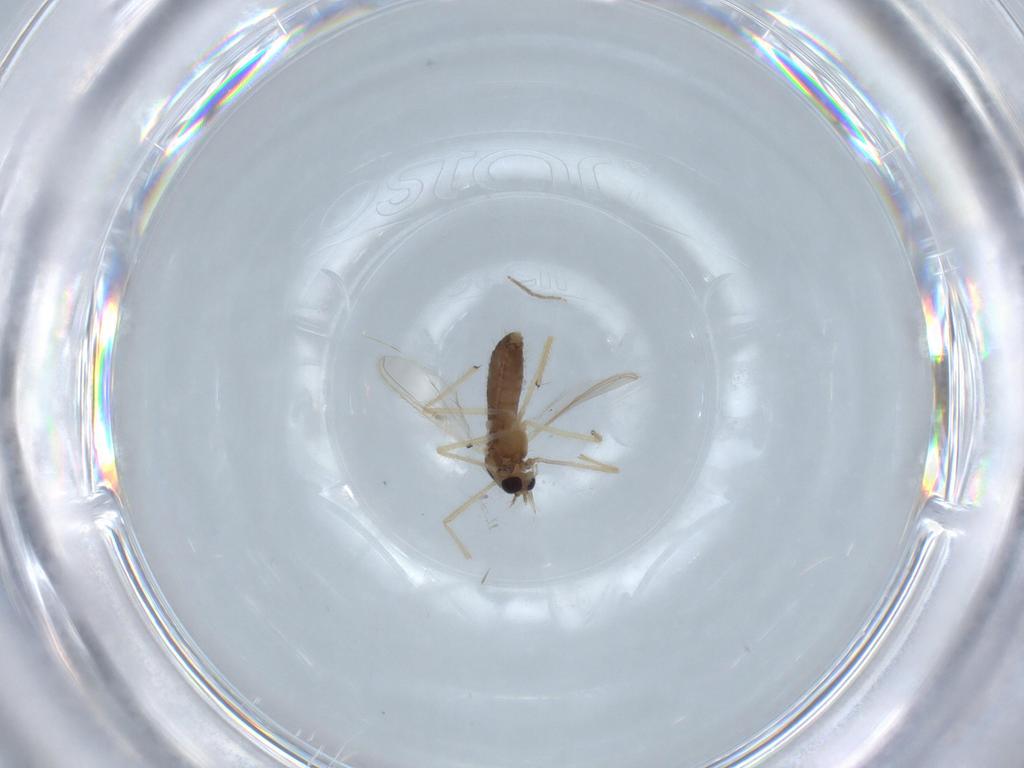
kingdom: Animalia
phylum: Arthropoda
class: Insecta
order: Diptera
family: Chironomidae
